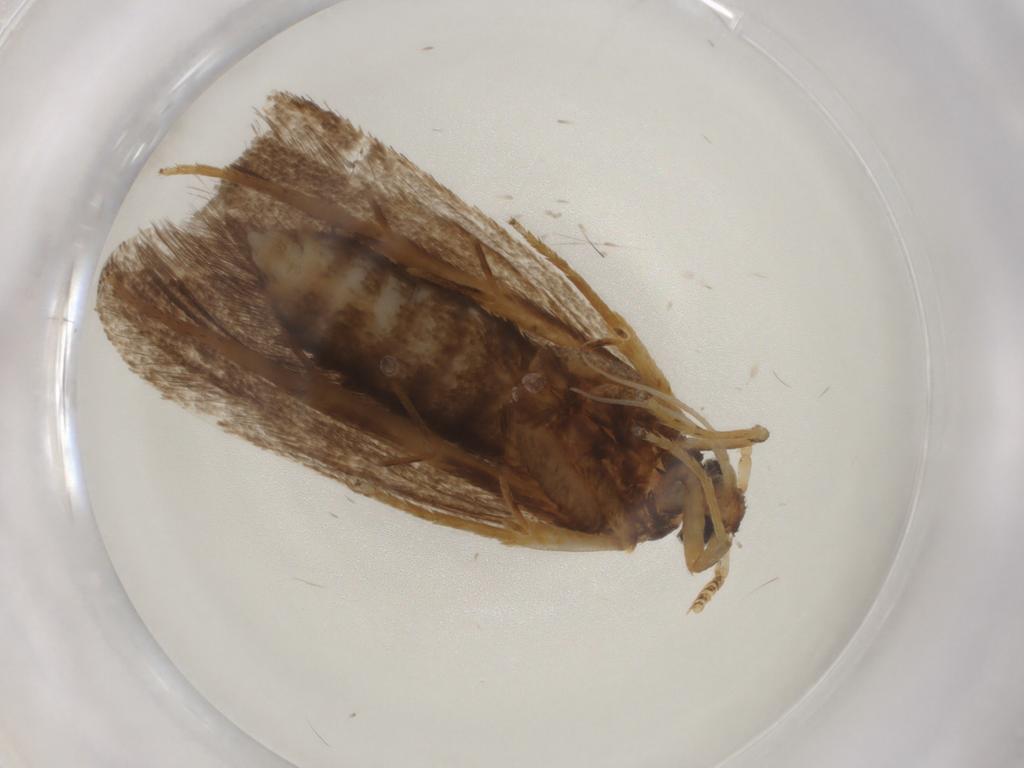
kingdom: Animalia
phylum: Arthropoda
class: Insecta
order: Lepidoptera
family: Lecithoceridae
